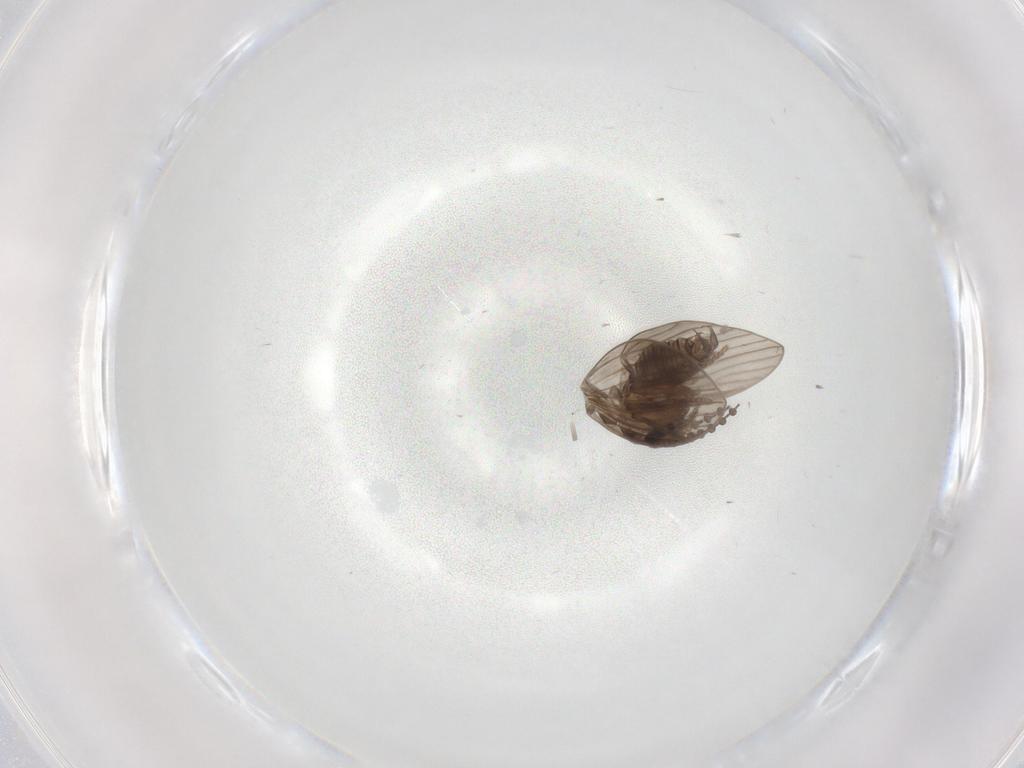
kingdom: Animalia
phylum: Arthropoda
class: Insecta
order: Diptera
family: Psychodidae
